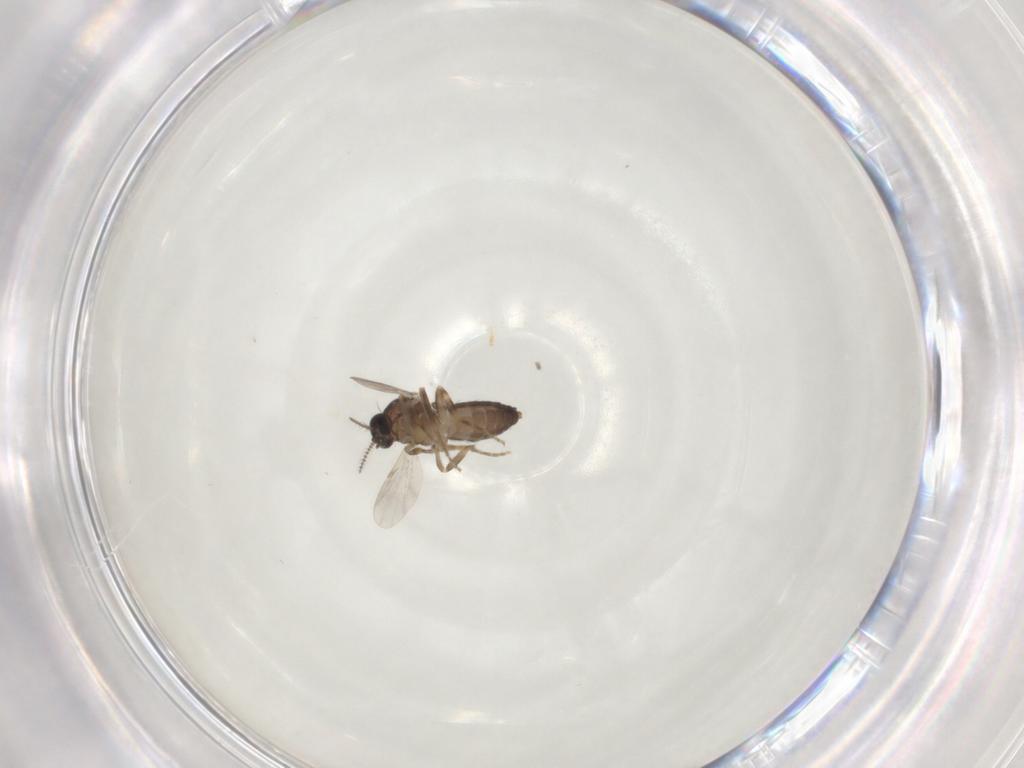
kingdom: Animalia
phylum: Arthropoda
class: Insecta
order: Diptera
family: Ceratopogonidae
